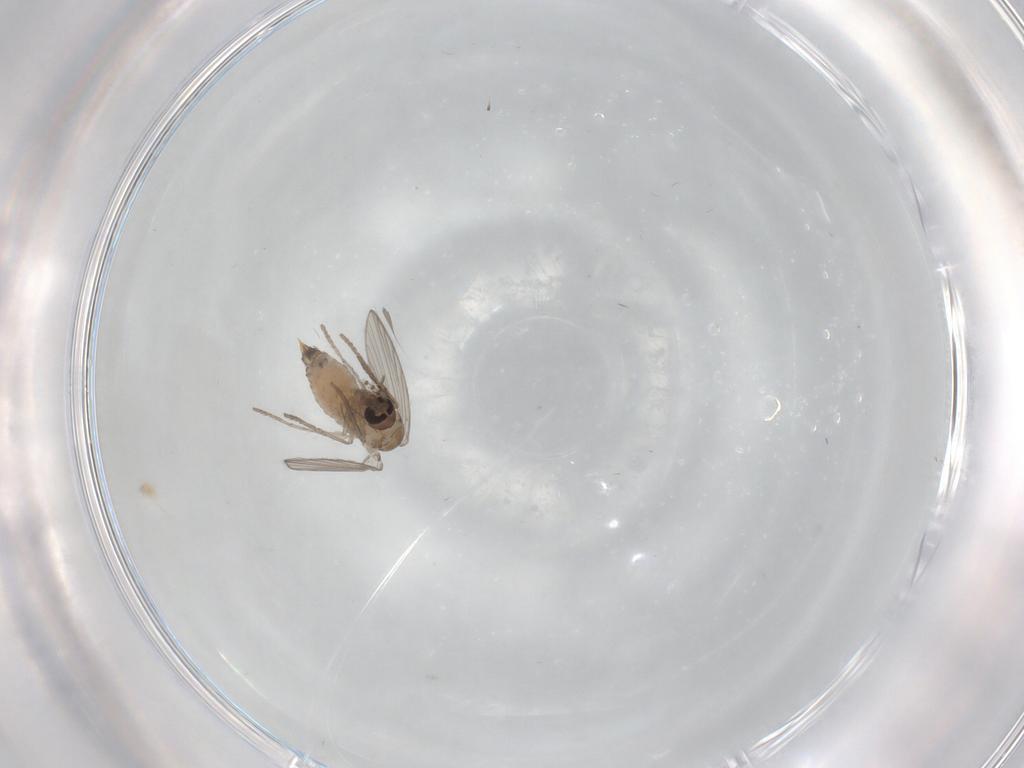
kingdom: Animalia
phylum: Arthropoda
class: Insecta
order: Diptera
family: Psychodidae
